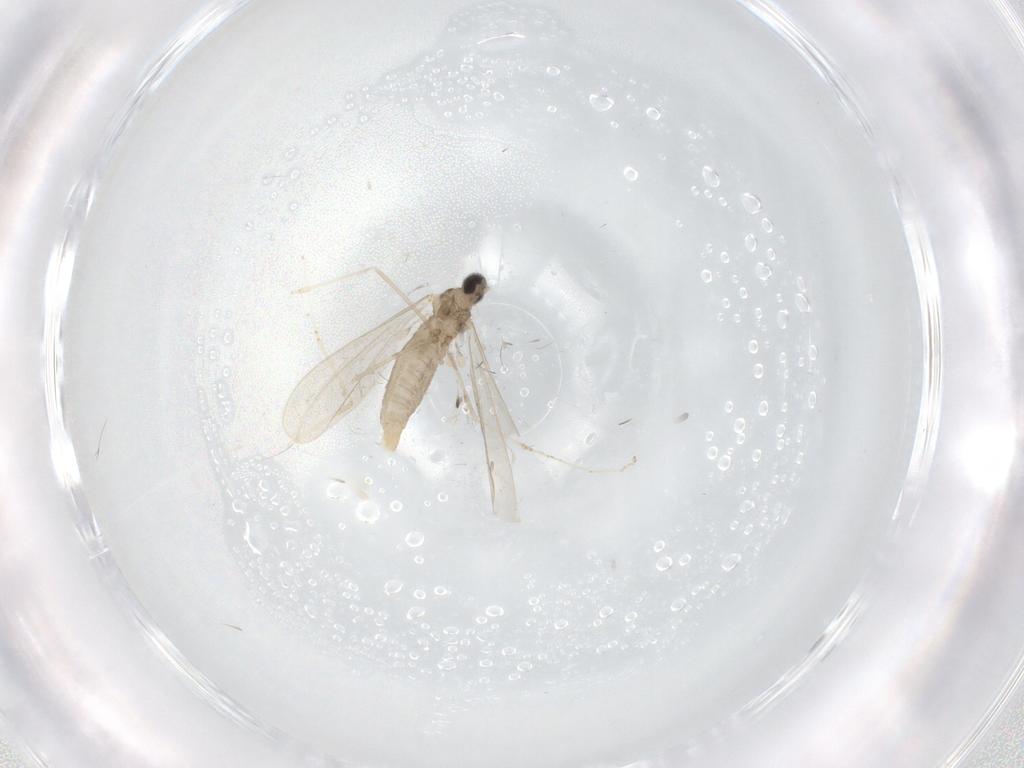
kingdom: Animalia
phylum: Arthropoda
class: Insecta
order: Diptera
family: Cecidomyiidae
